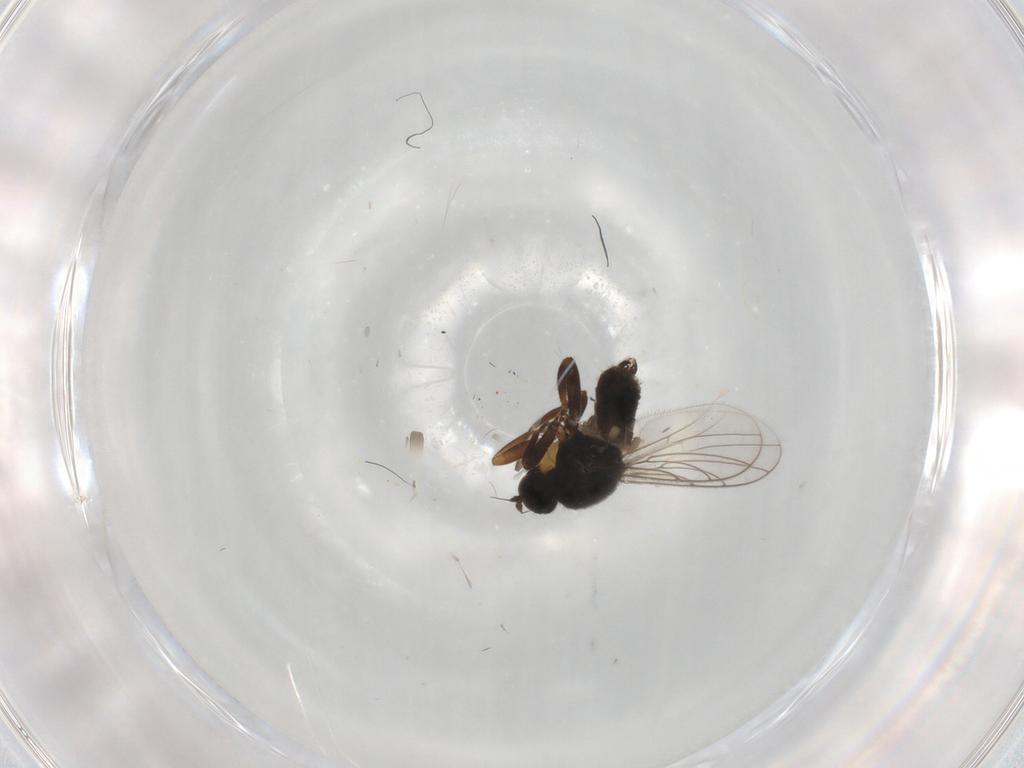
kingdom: Animalia
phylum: Arthropoda
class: Insecta
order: Diptera
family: Hybotidae
